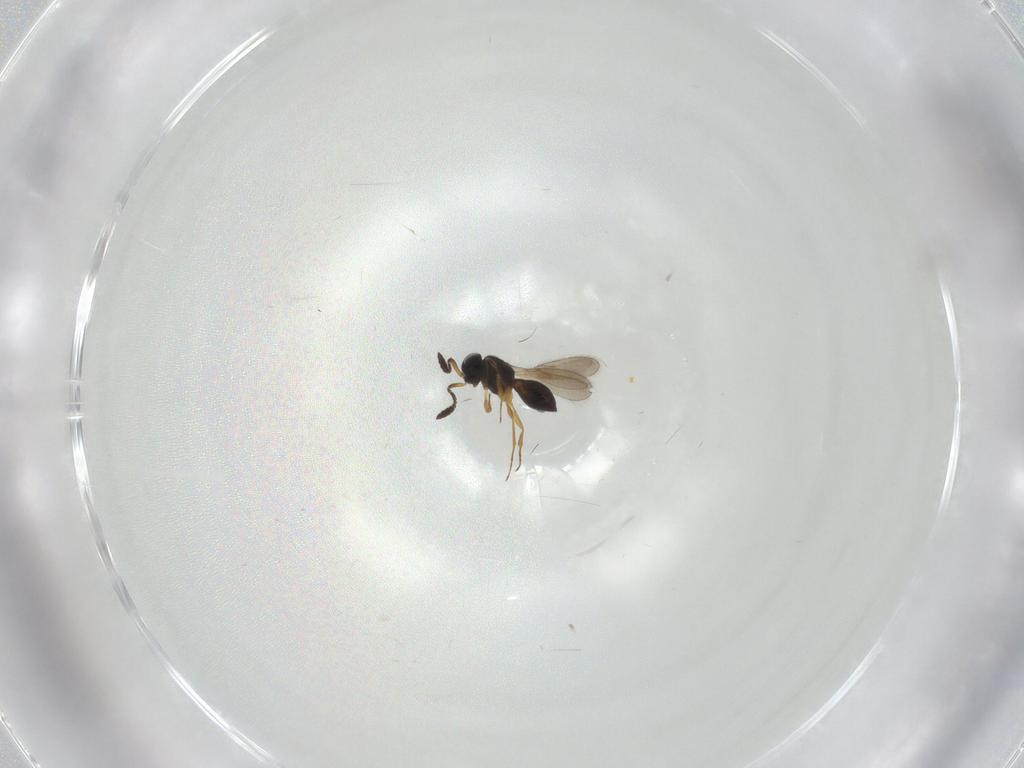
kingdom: Animalia
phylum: Arthropoda
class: Insecta
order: Hymenoptera
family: Scelionidae
